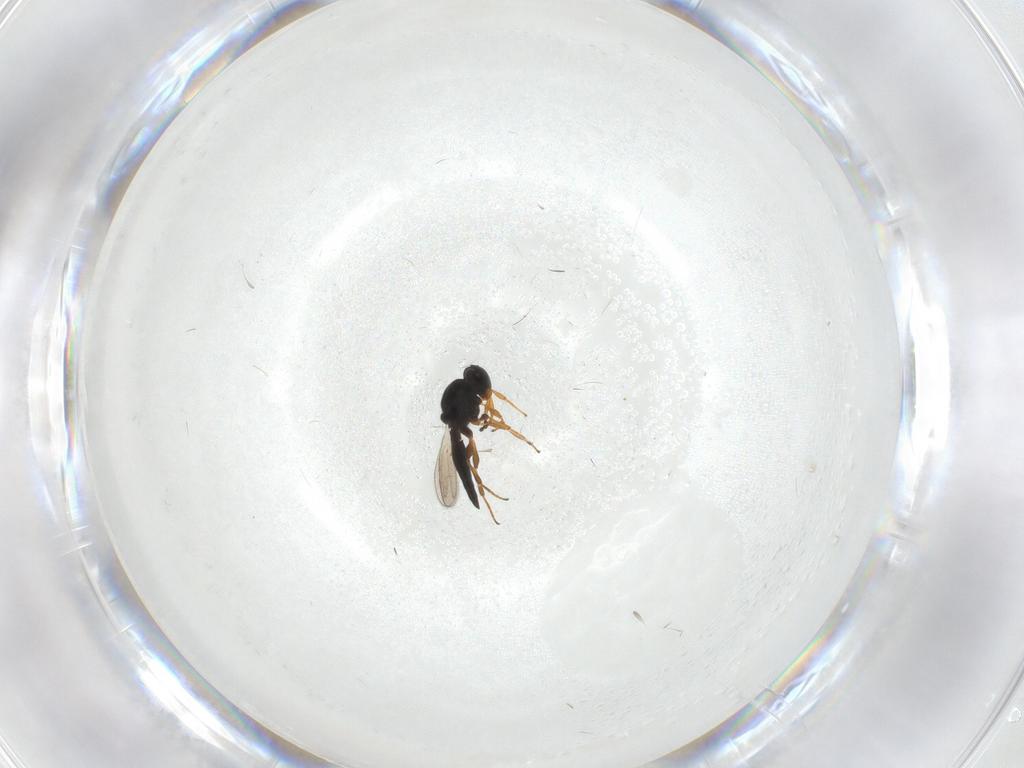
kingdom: Animalia
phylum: Arthropoda
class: Insecta
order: Hymenoptera
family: Platygastridae
